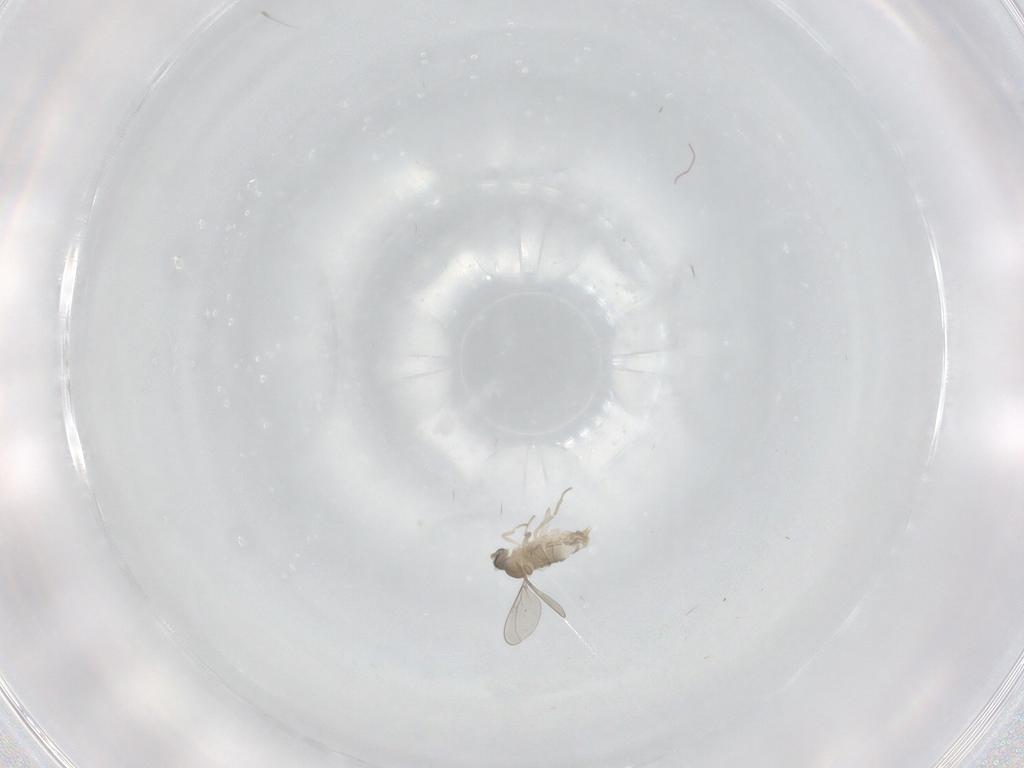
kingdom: Animalia
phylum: Arthropoda
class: Insecta
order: Diptera
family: Cecidomyiidae
